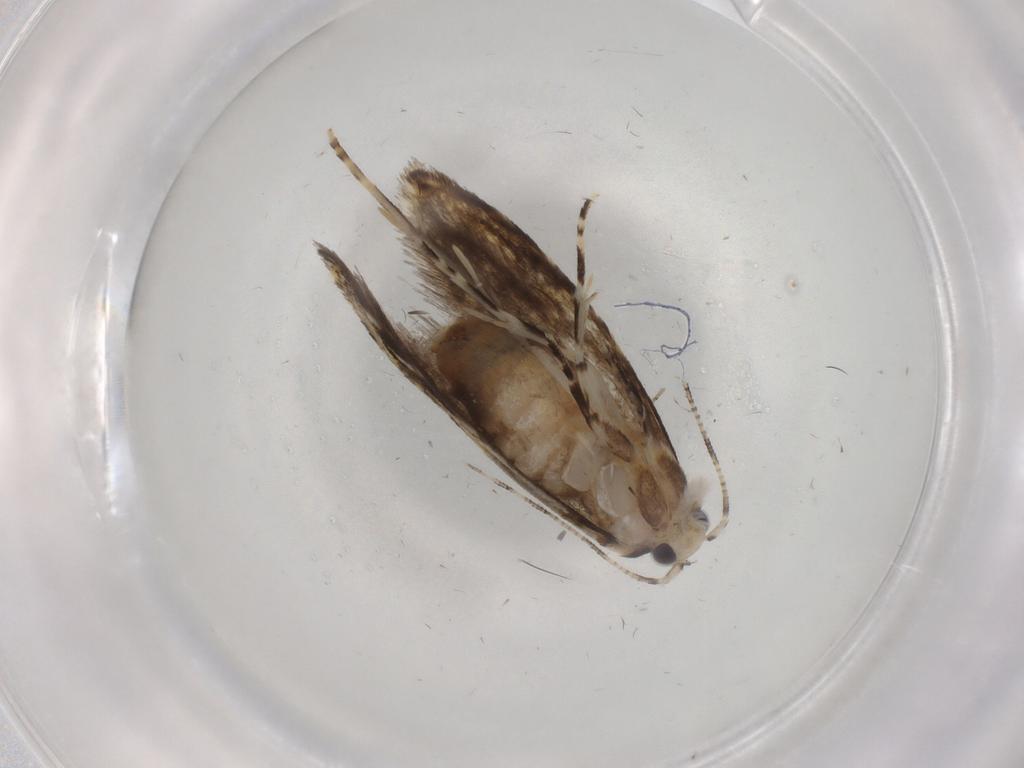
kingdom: Animalia
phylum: Arthropoda
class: Insecta
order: Lepidoptera
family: Tineidae
